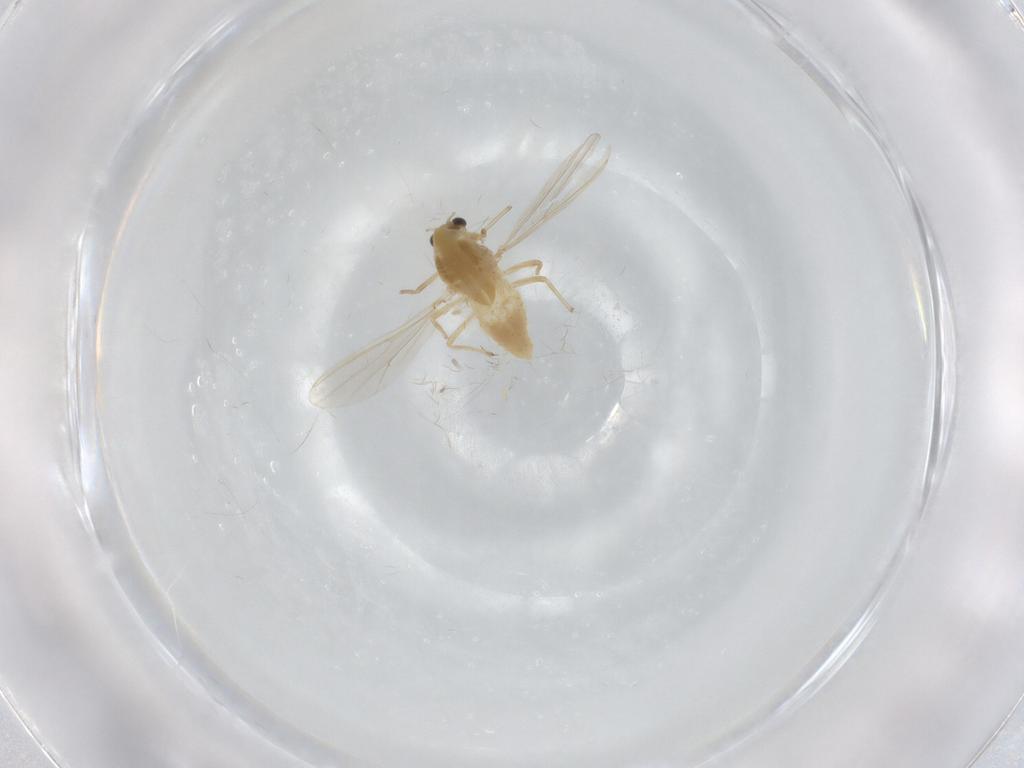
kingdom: Animalia
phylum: Arthropoda
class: Insecta
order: Diptera
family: Chironomidae
